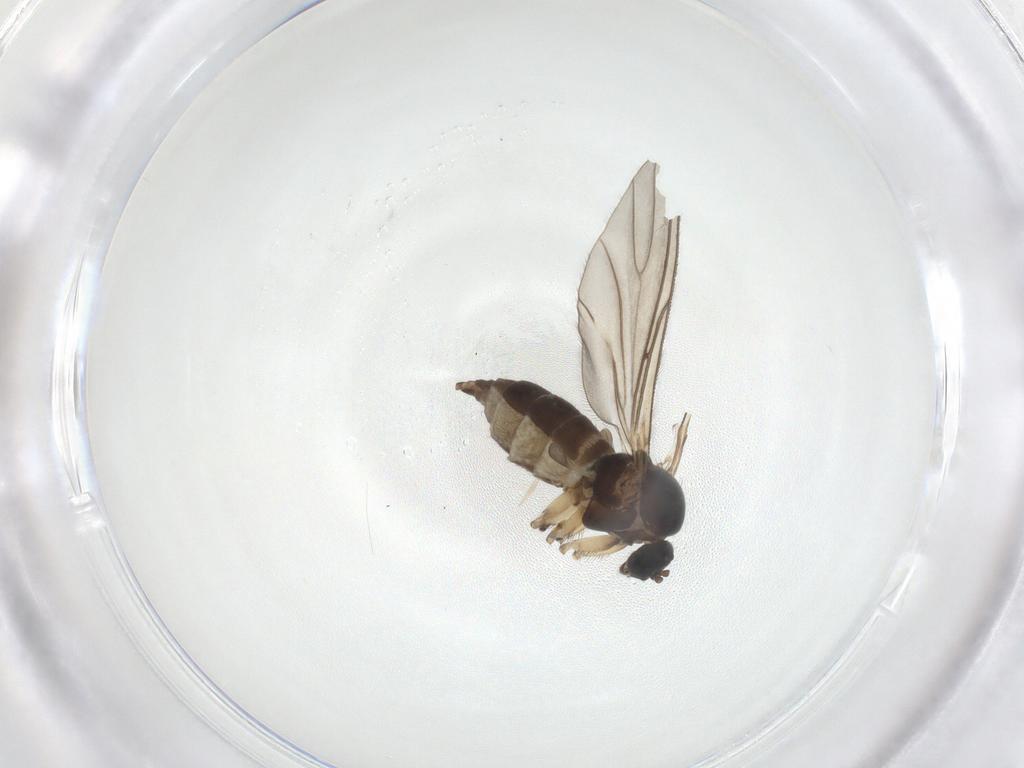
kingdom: Animalia
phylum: Arthropoda
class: Insecta
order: Diptera
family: Sciaridae
